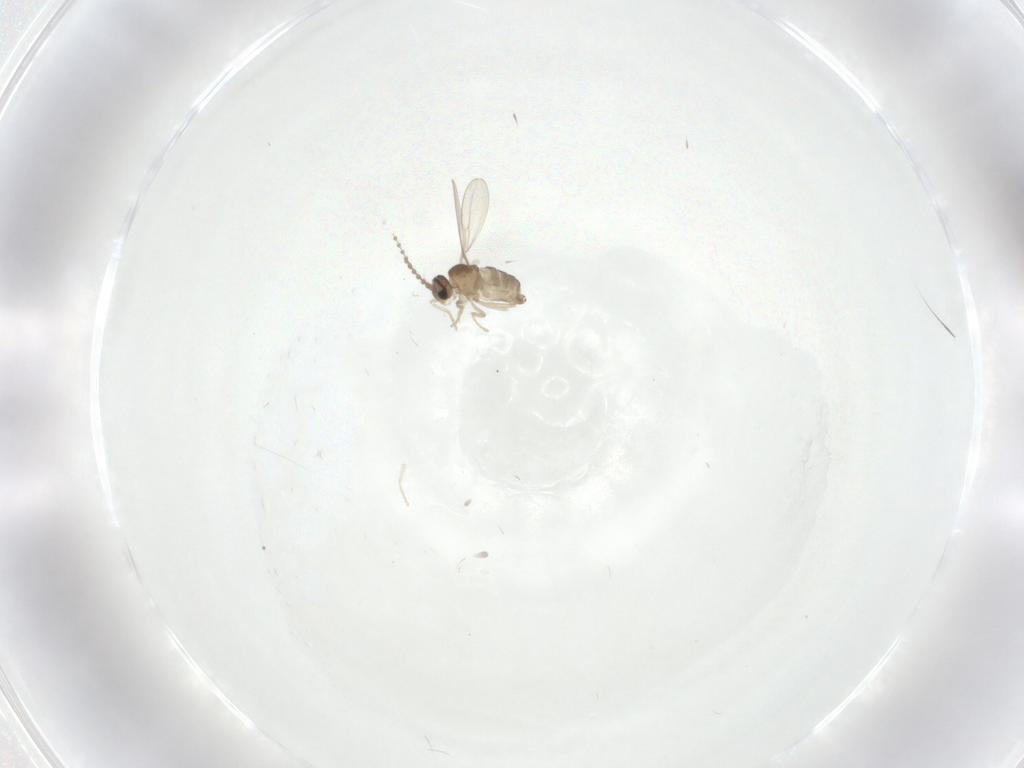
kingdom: Animalia
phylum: Arthropoda
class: Insecta
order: Diptera
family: Cecidomyiidae
